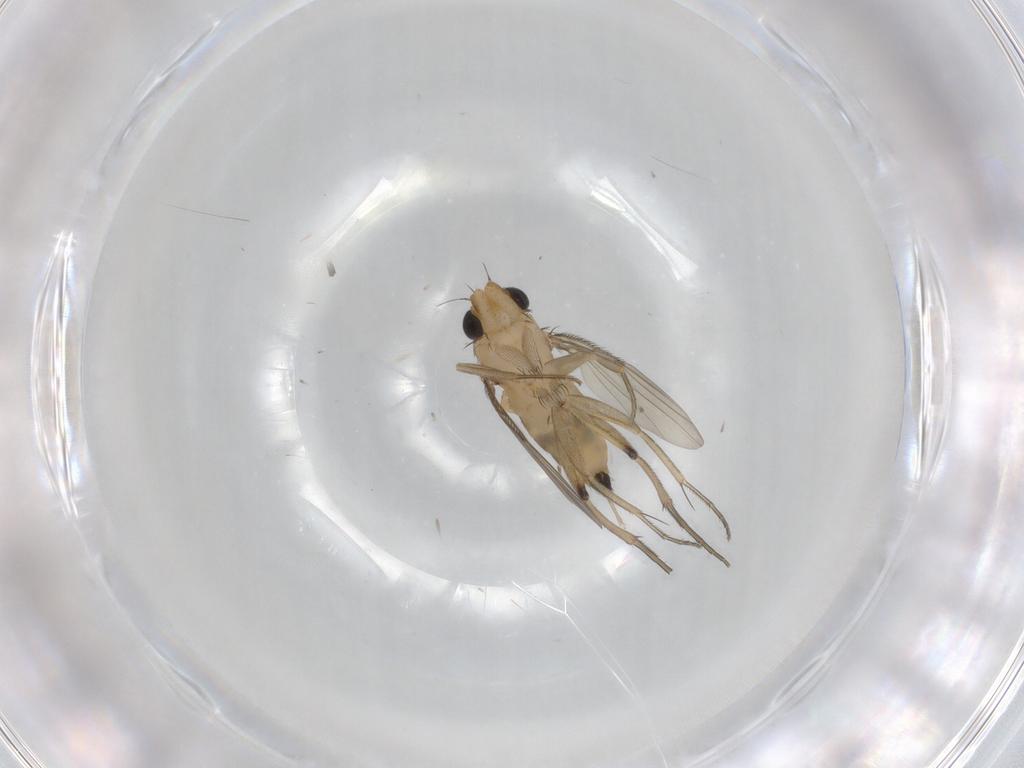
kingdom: Animalia
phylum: Arthropoda
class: Insecta
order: Diptera
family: Phoridae
